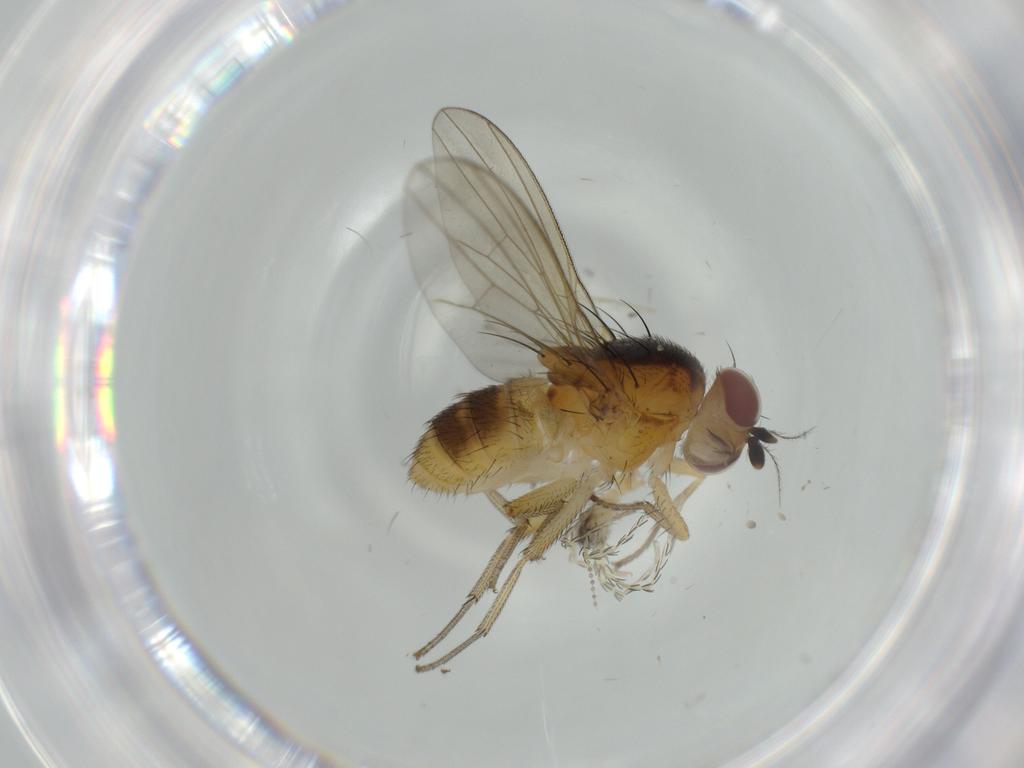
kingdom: Animalia
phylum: Arthropoda
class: Insecta
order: Diptera
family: Lauxaniidae
